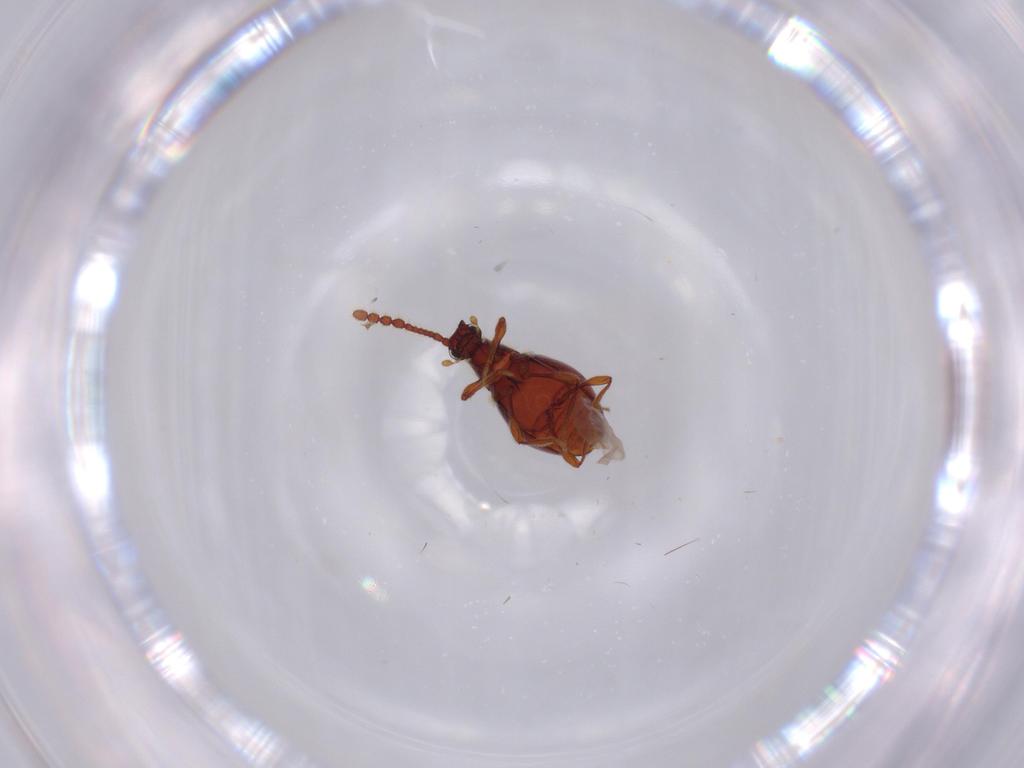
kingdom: Animalia
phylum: Arthropoda
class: Insecta
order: Coleoptera
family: Staphylinidae
